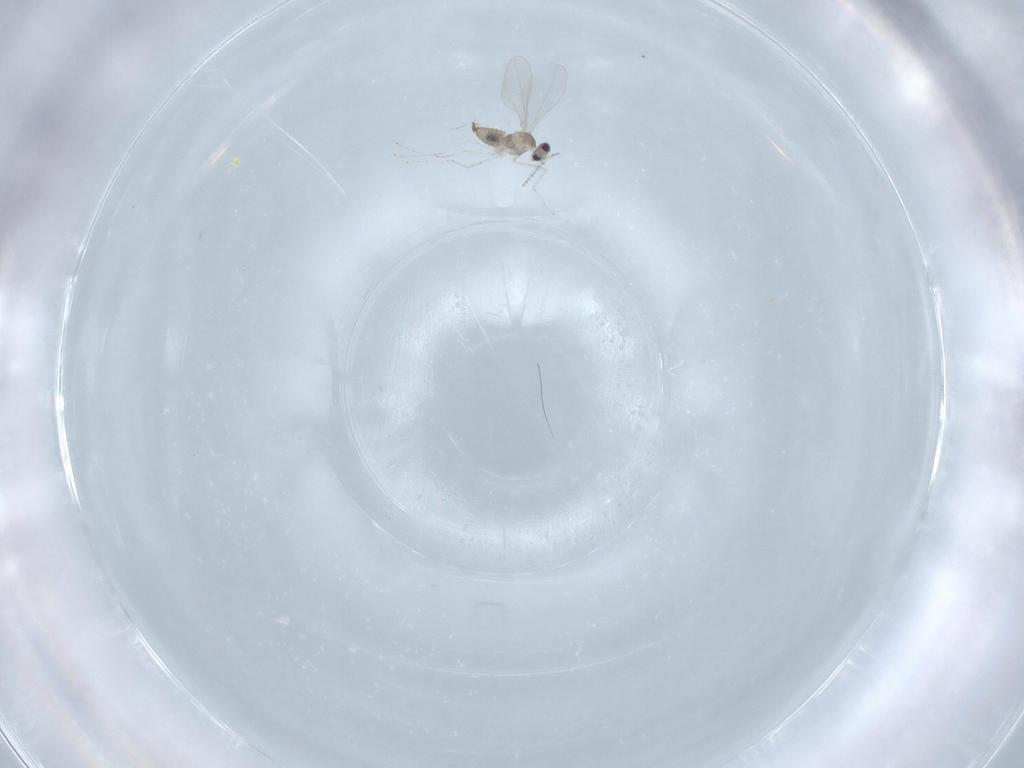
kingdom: Animalia
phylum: Arthropoda
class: Insecta
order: Diptera
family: Cecidomyiidae
